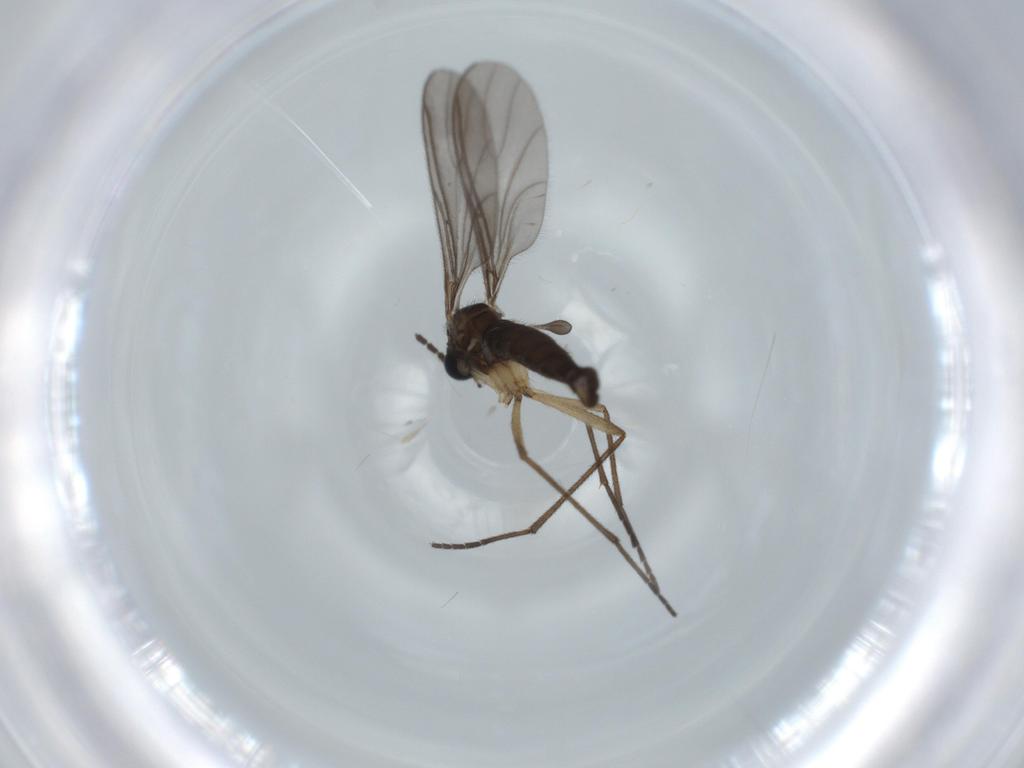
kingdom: Animalia
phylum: Arthropoda
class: Insecta
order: Diptera
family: Sciaridae
